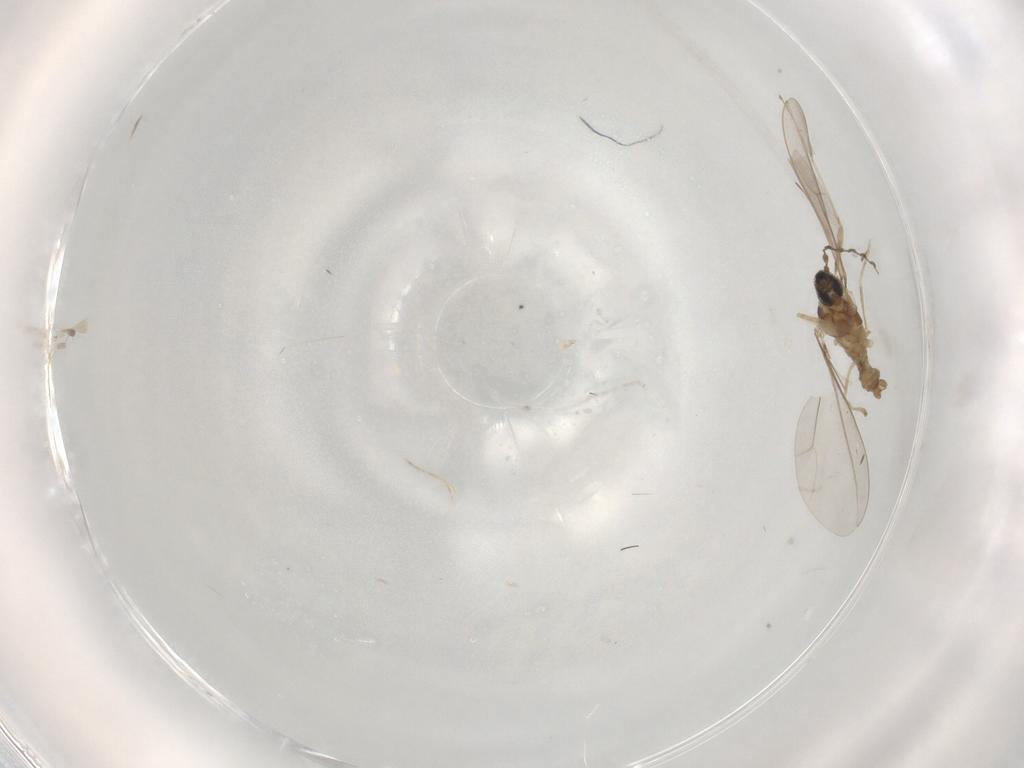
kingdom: Animalia
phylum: Arthropoda
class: Insecta
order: Diptera
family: Cecidomyiidae
